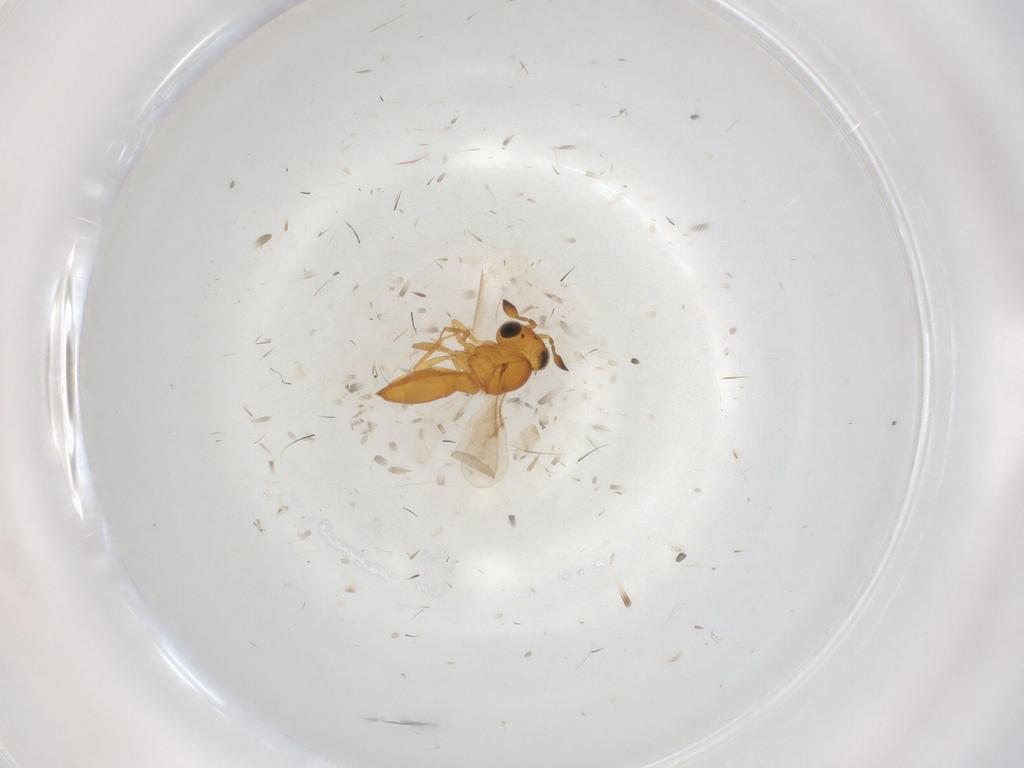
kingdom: Animalia
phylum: Arthropoda
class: Insecta
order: Hymenoptera
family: Scelionidae
